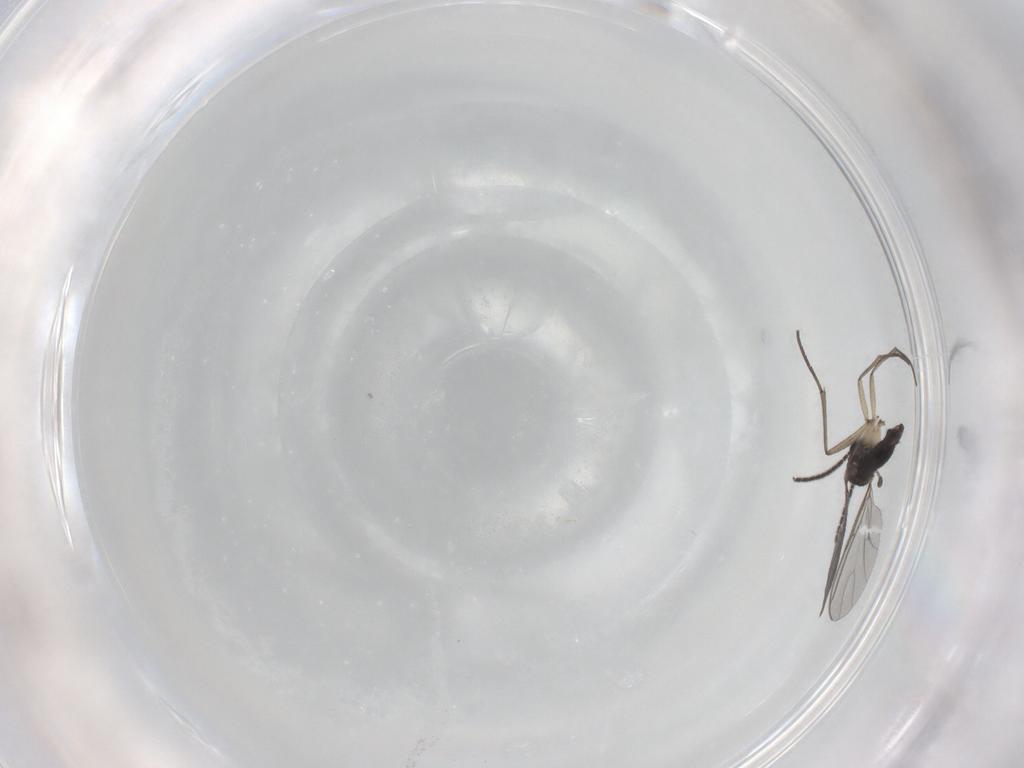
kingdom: Animalia
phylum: Arthropoda
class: Insecta
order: Diptera
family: Sciaridae
